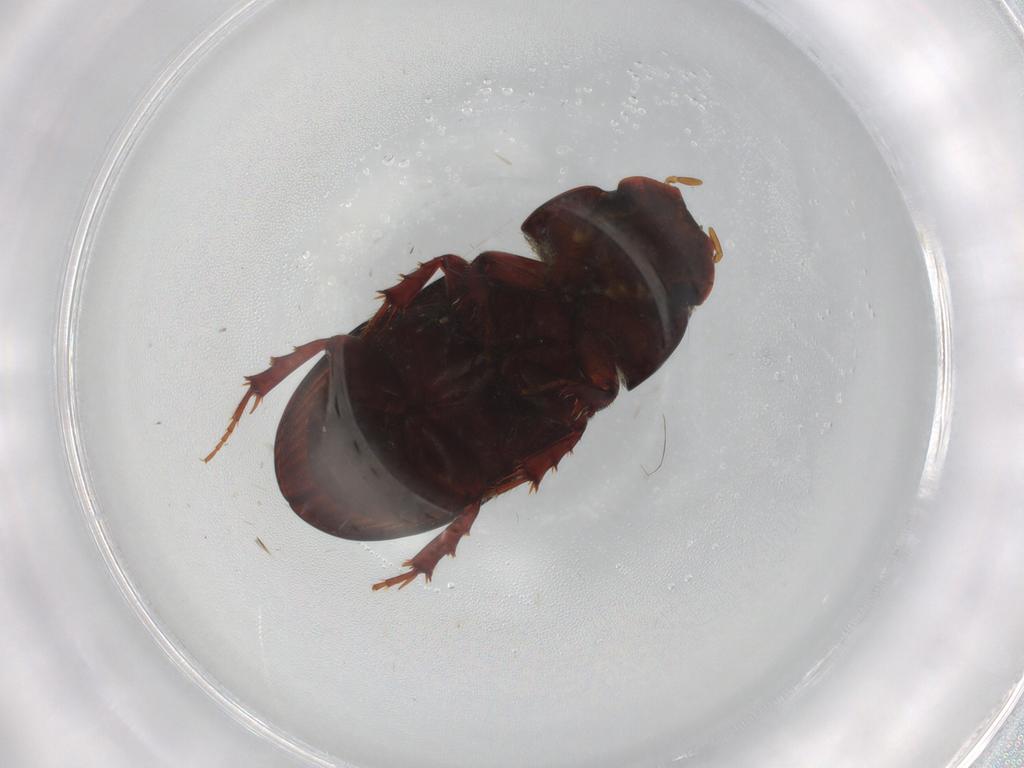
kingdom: Animalia
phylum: Arthropoda
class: Insecta
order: Coleoptera
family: Scarabaeidae
